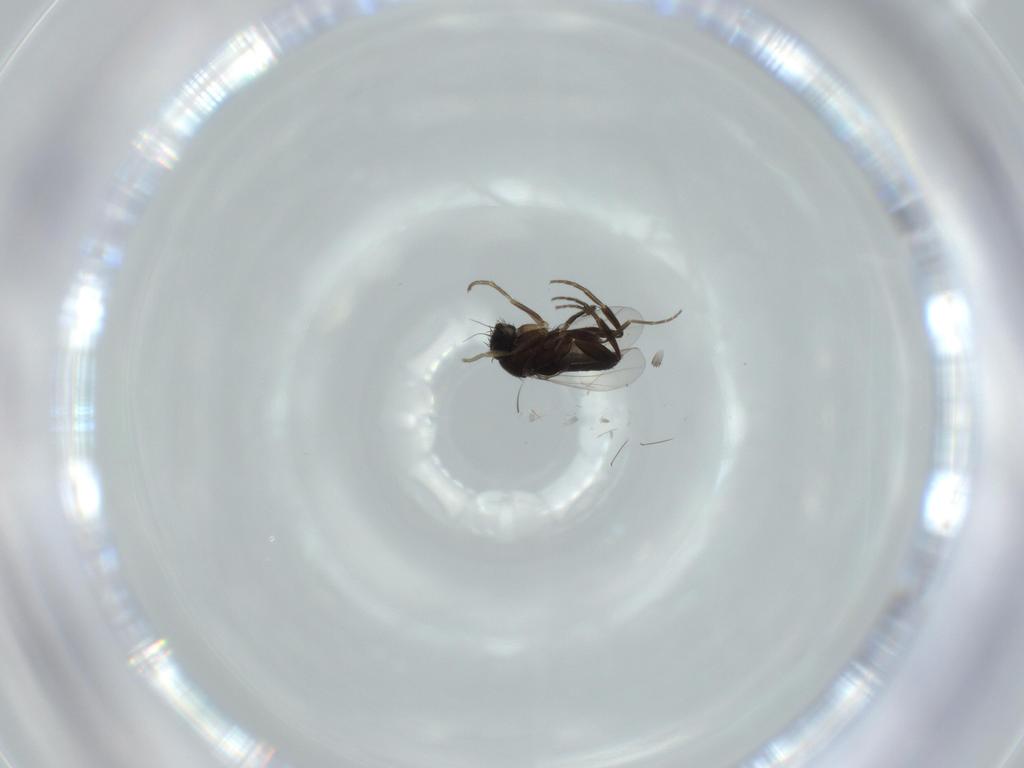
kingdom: Animalia
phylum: Arthropoda
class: Insecta
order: Diptera
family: Phoridae
